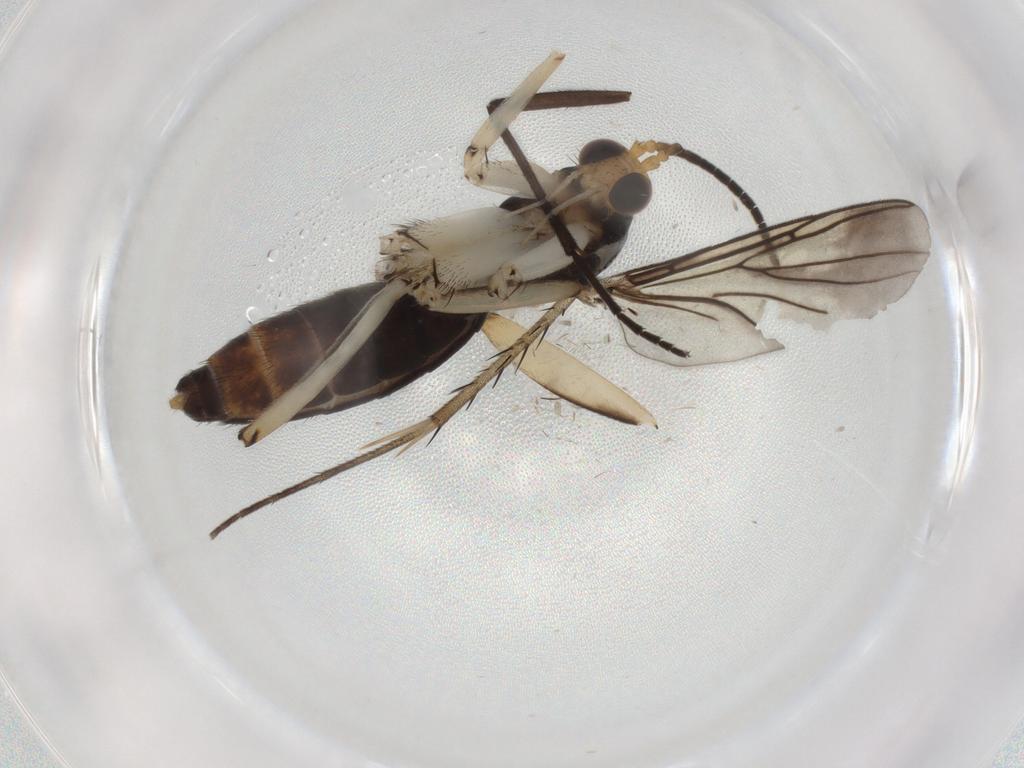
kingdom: Animalia
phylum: Arthropoda
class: Insecta
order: Diptera
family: Mycetophilidae
